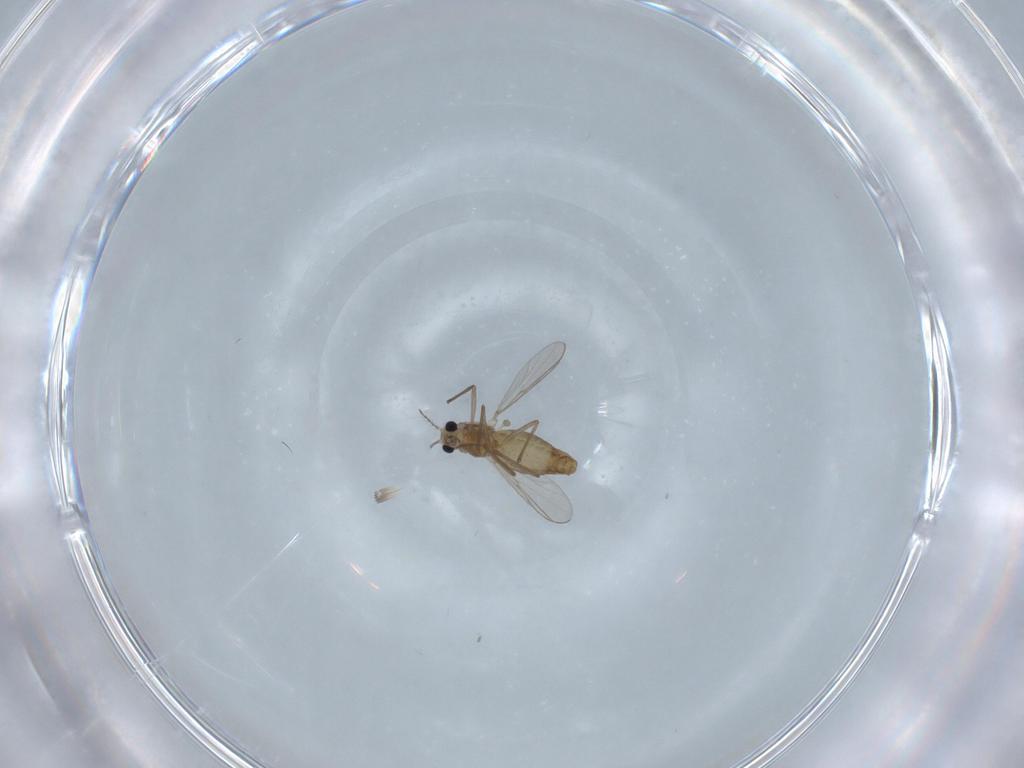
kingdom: Animalia
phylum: Arthropoda
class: Insecta
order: Diptera
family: Chironomidae
